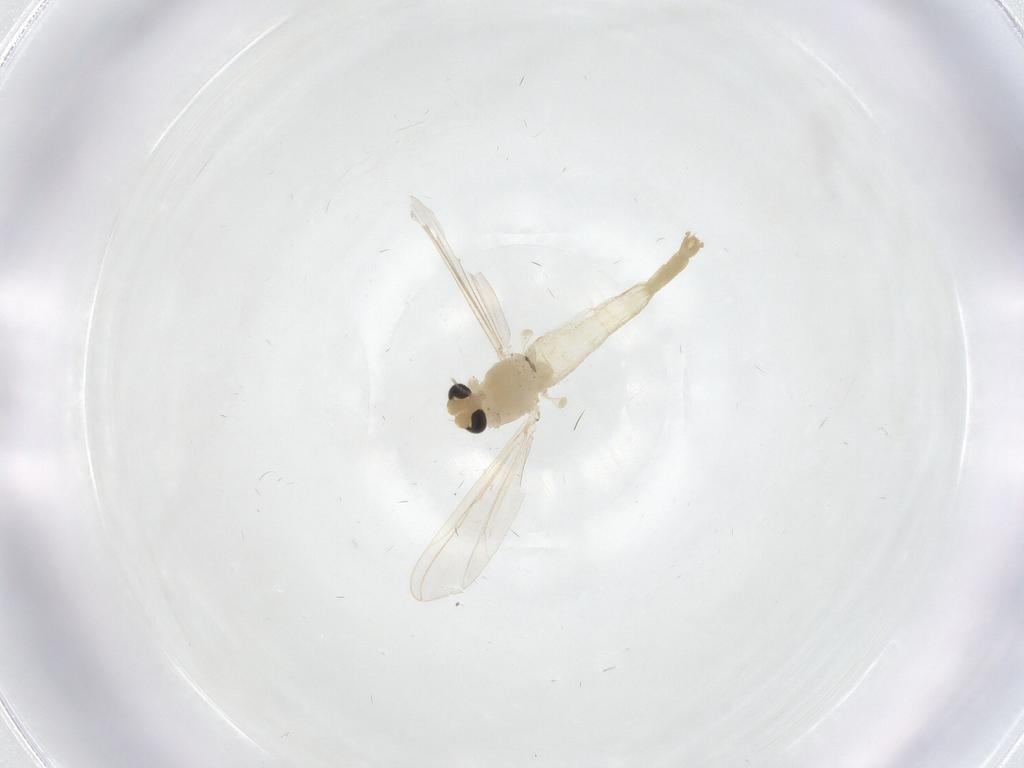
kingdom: Animalia
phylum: Arthropoda
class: Insecta
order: Diptera
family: Chironomidae
